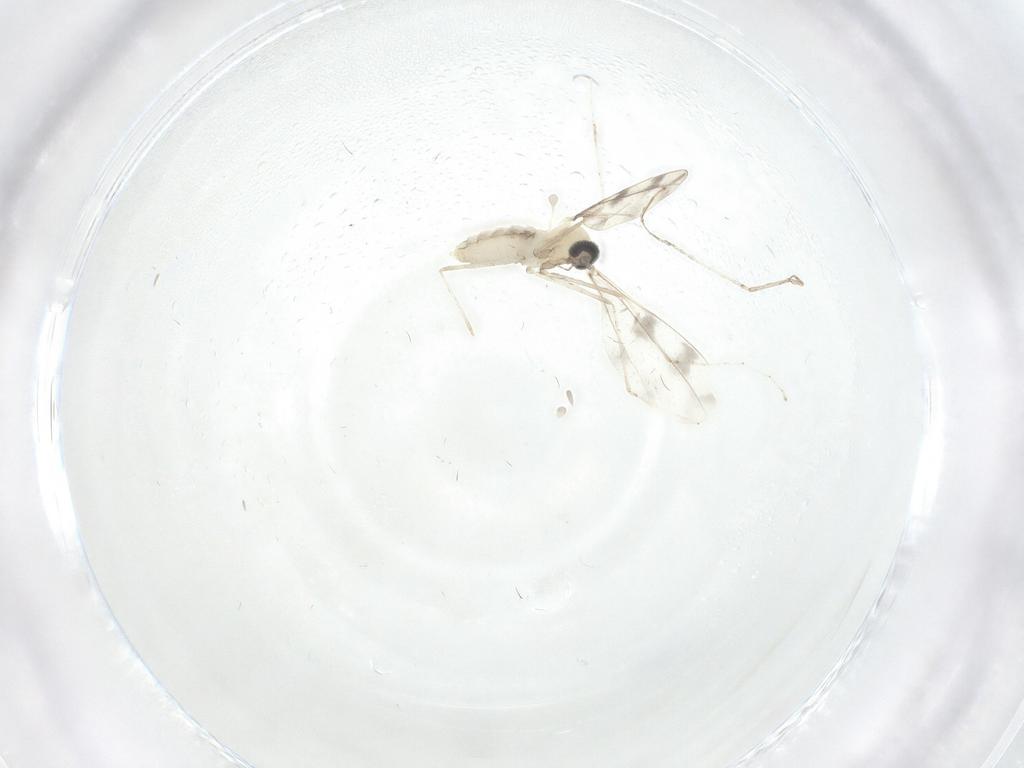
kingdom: Animalia
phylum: Arthropoda
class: Insecta
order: Diptera
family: Cecidomyiidae
